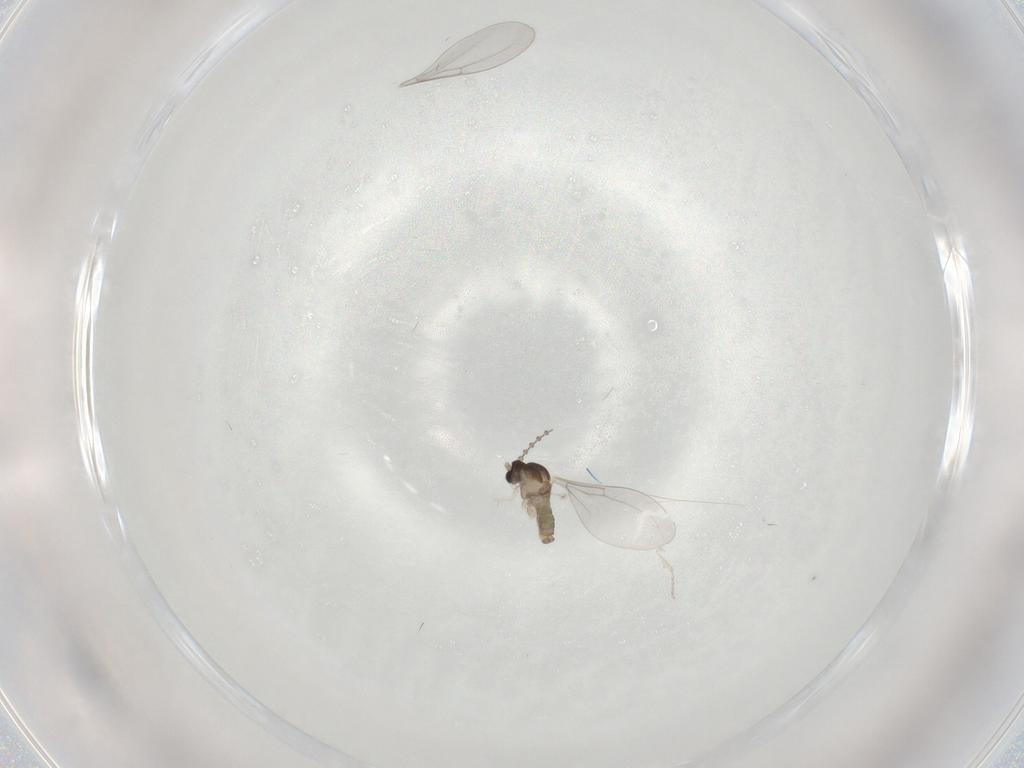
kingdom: Animalia
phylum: Arthropoda
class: Insecta
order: Diptera
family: Cecidomyiidae
